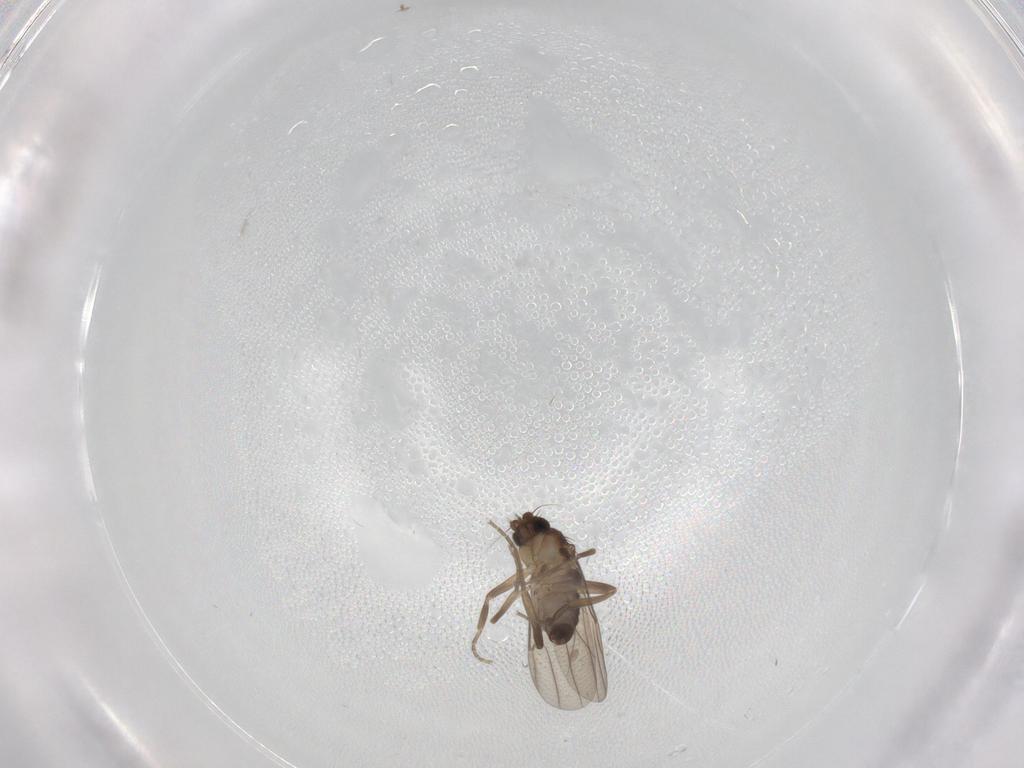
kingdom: Animalia
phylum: Arthropoda
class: Insecta
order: Diptera
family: Phoridae
